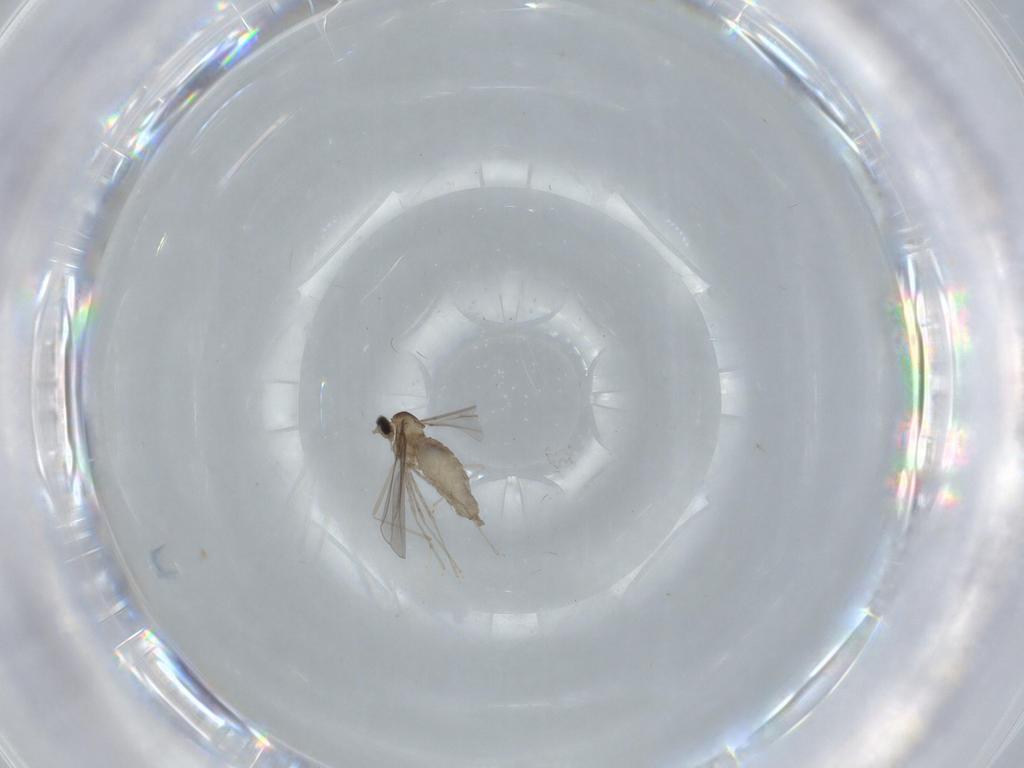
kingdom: Animalia
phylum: Arthropoda
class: Insecta
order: Diptera
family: Cecidomyiidae
